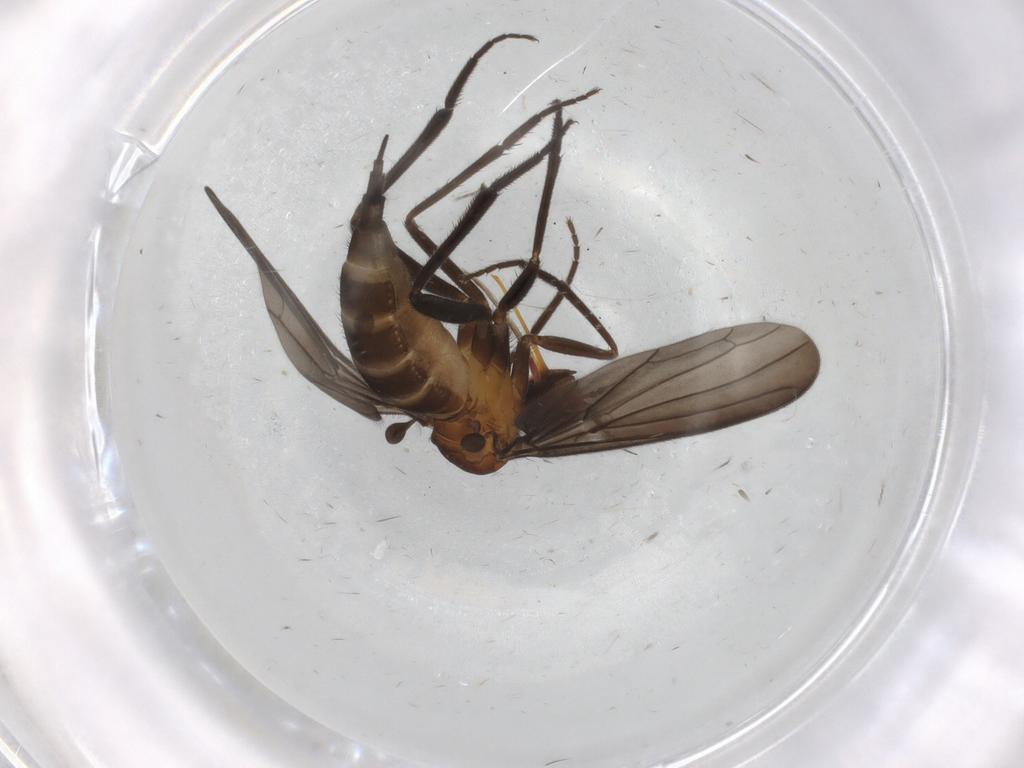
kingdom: Animalia
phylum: Arthropoda
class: Insecta
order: Diptera
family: Empididae
